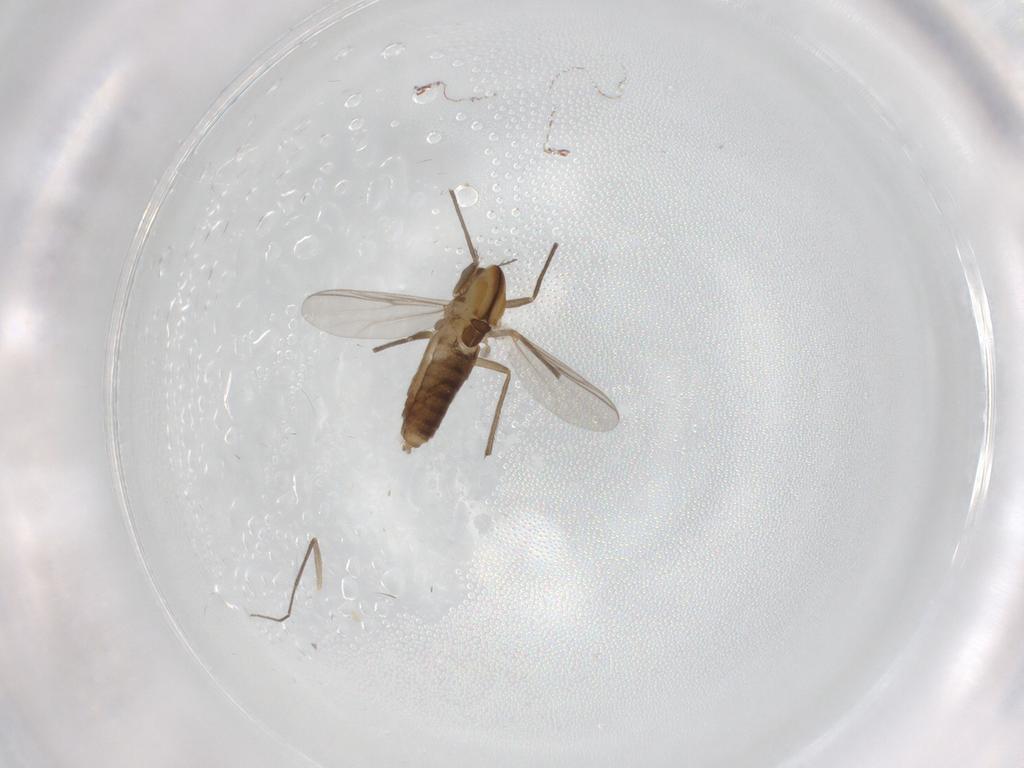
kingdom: Animalia
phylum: Arthropoda
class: Insecta
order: Diptera
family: Chironomidae
